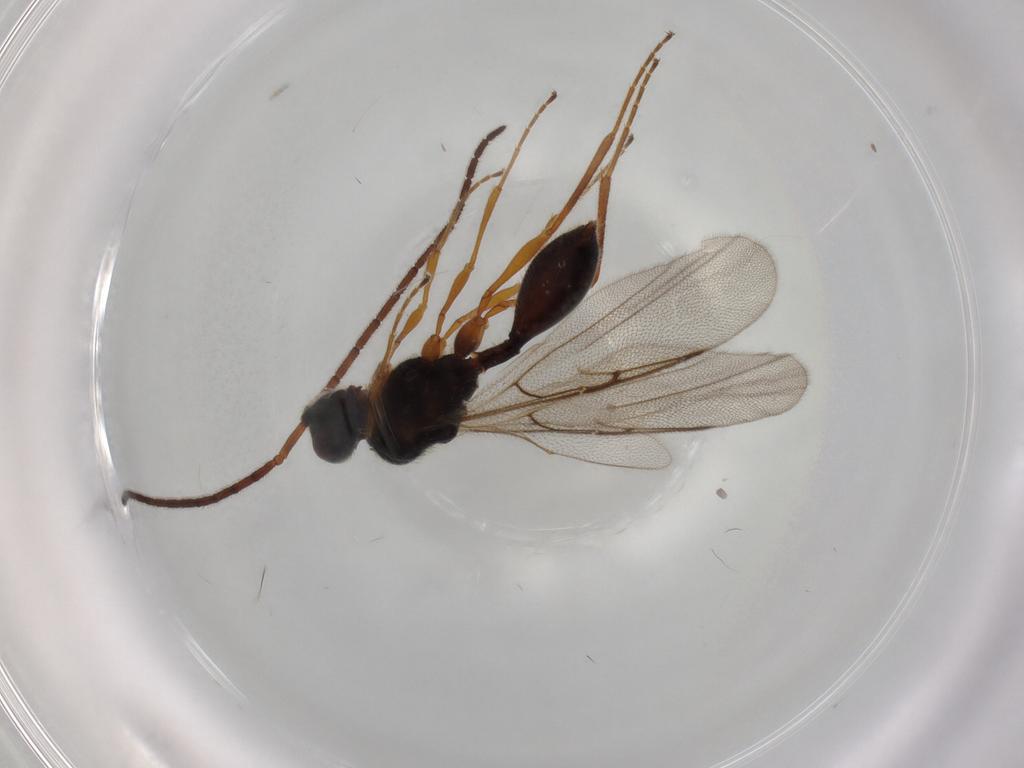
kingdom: Animalia
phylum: Arthropoda
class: Insecta
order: Hymenoptera
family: Diapriidae
